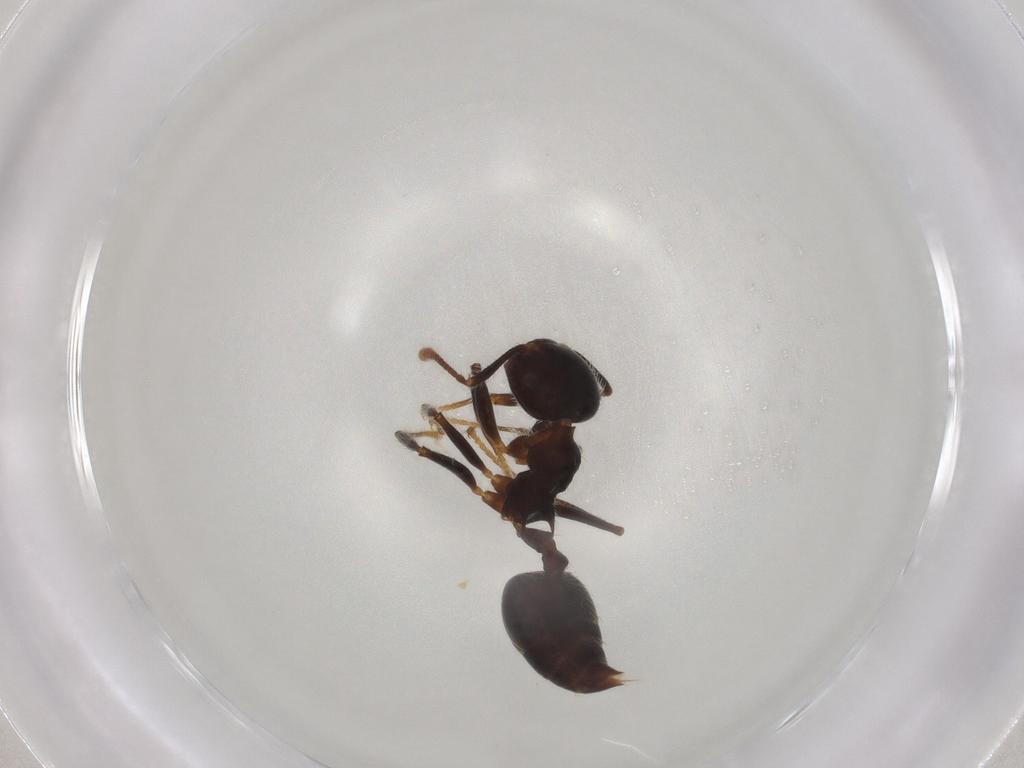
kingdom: Animalia
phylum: Arthropoda
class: Insecta
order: Hymenoptera
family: Formicidae
